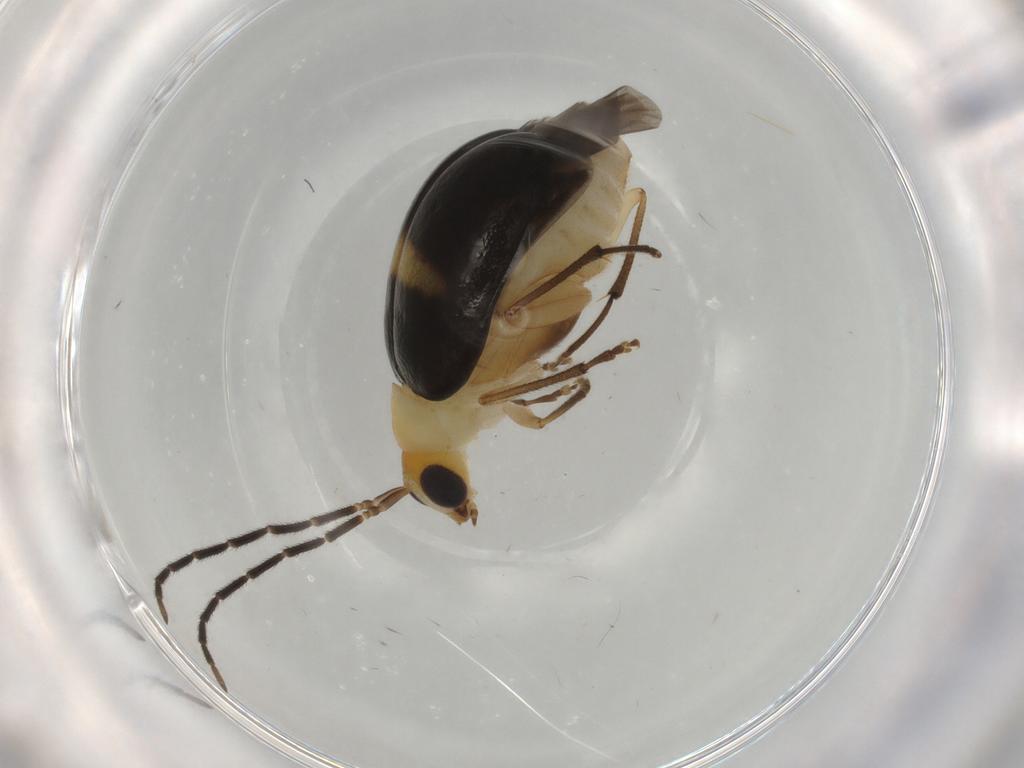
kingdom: Animalia
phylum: Arthropoda
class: Insecta
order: Coleoptera
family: Chrysomelidae
